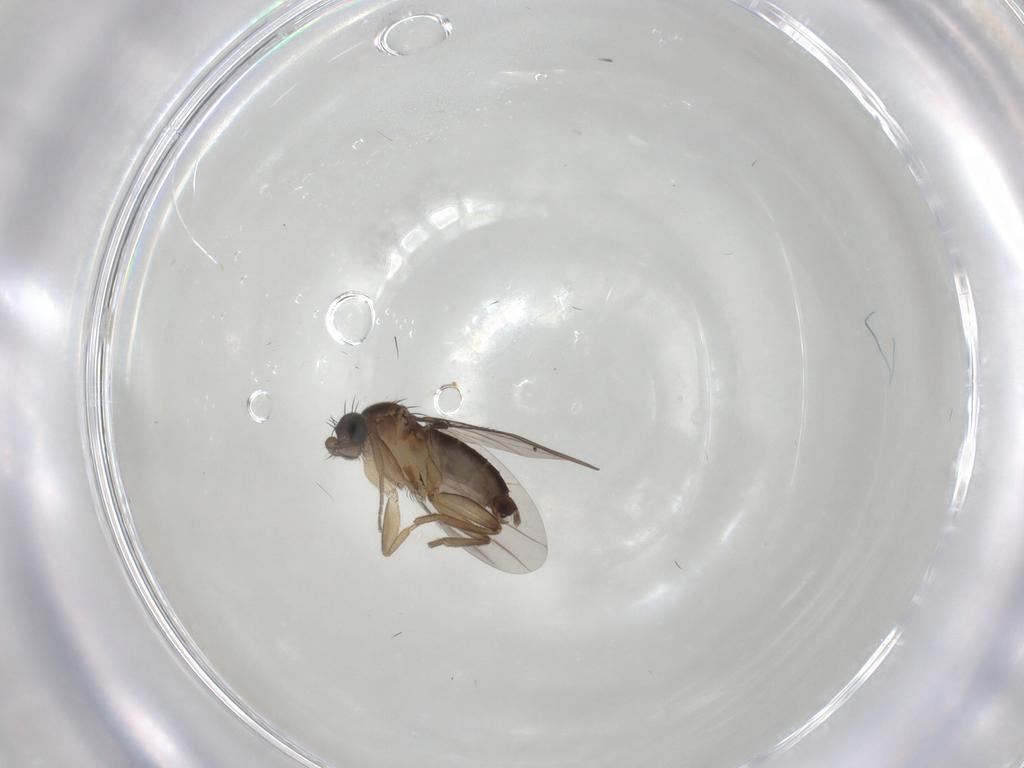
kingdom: Animalia
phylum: Arthropoda
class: Insecta
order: Diptera
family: Phoridae
